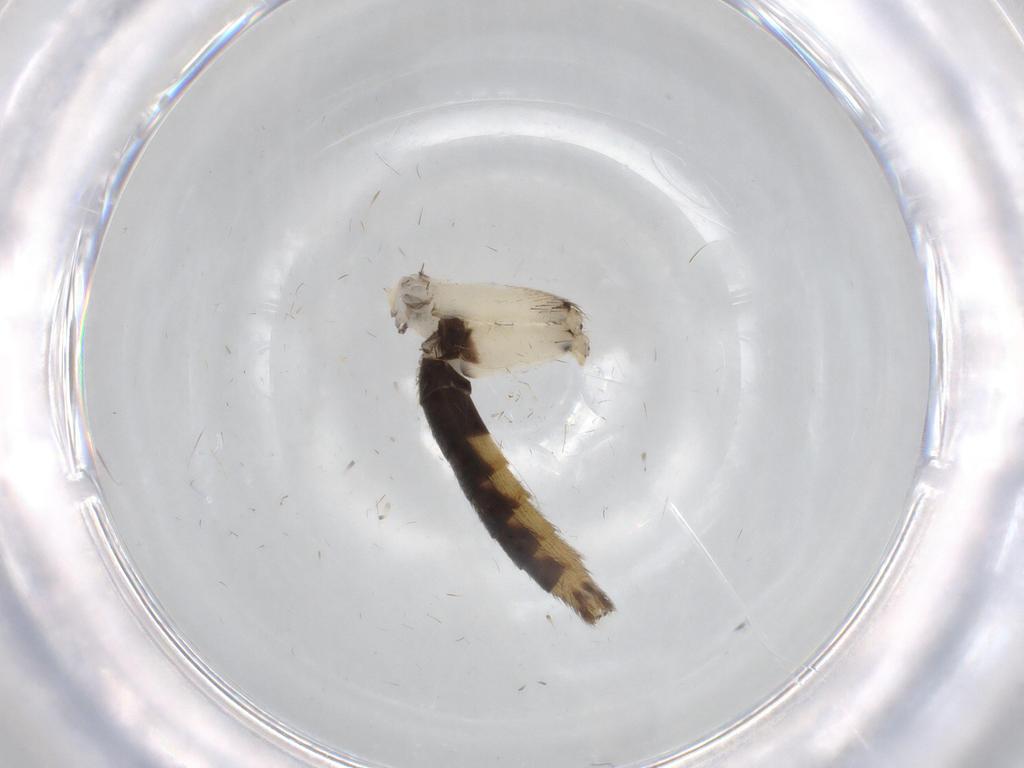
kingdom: Animalia
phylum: Arthropoda
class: Insecta
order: Diptera
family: Mycetophilidae
